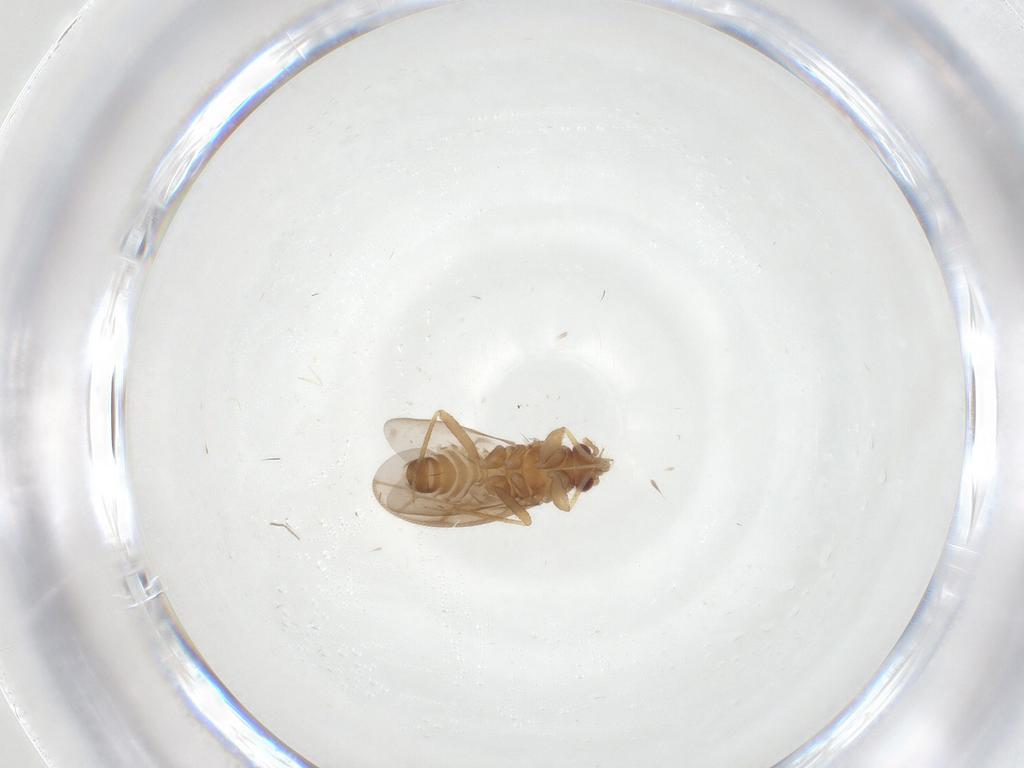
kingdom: Animalia
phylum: Arthropoda
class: Insecta
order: Hemiptera
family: Ceratocombidae
